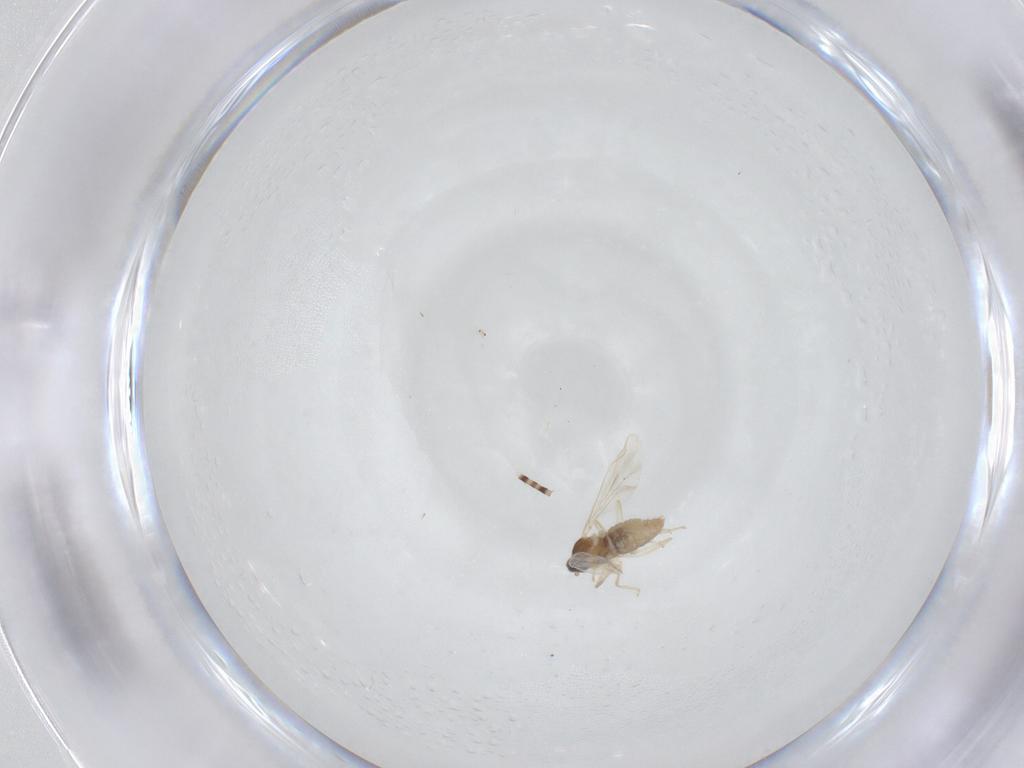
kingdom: Animalia
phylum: Arthropoda
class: Insecta
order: Diptera
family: Cecidomyiidae
